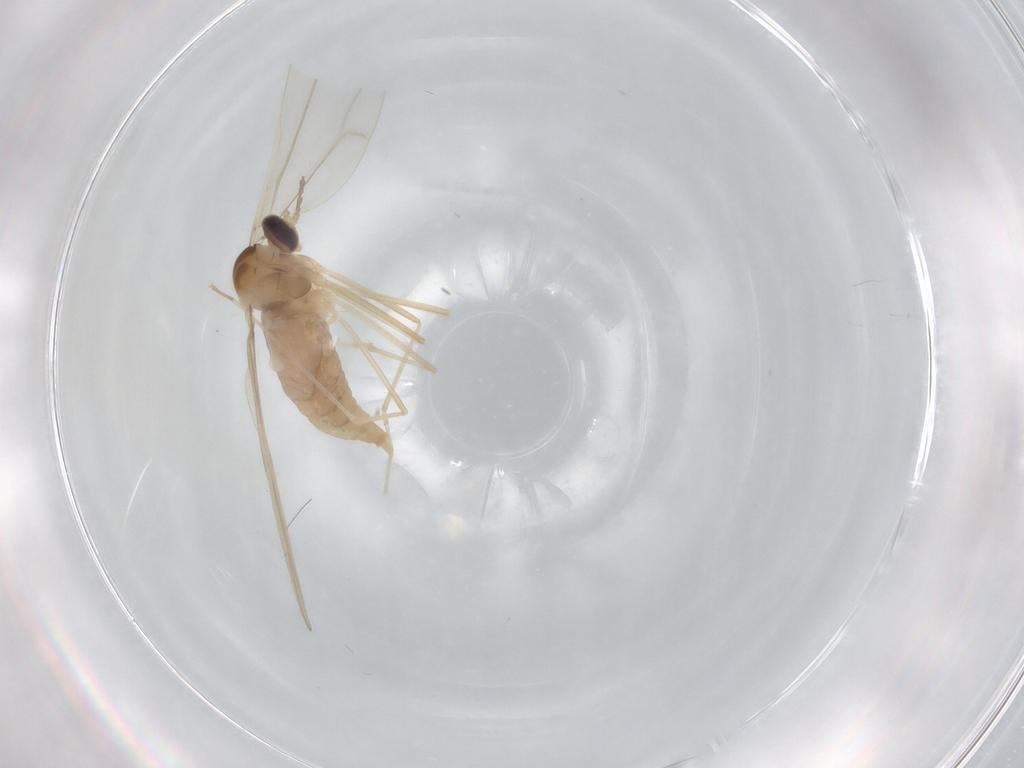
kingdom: Animalia
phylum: Arthropoda
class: Insecta
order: Diptera
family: Cecidomyiidae
